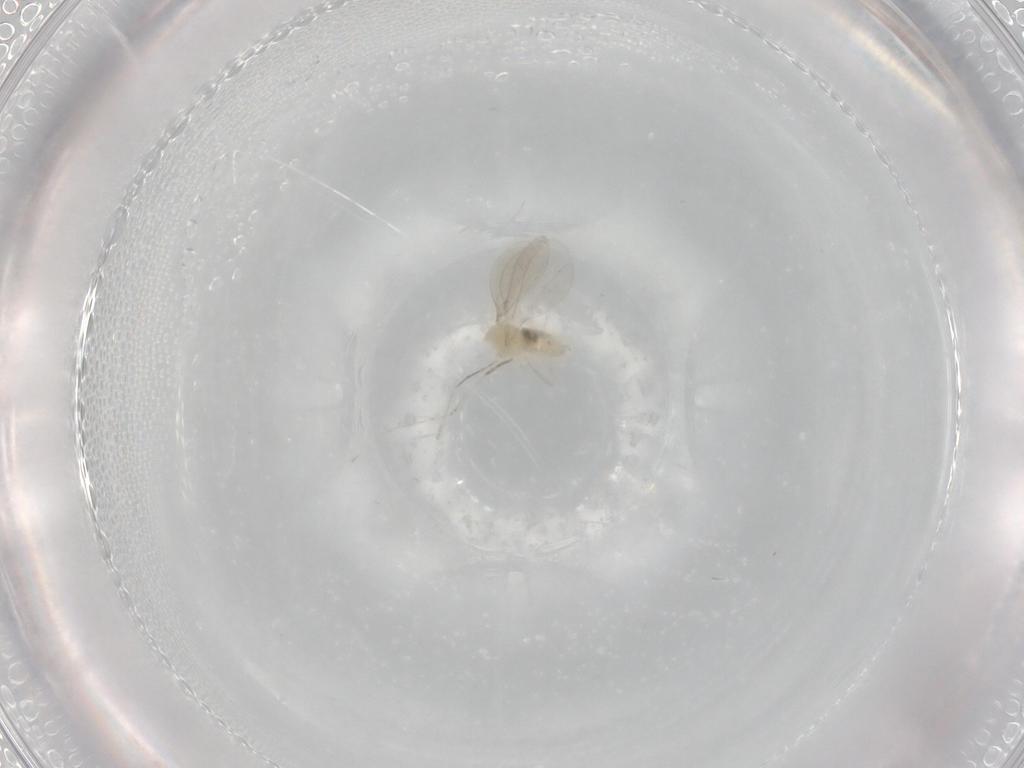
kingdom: Animalia
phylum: Arthropoda
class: Insecta
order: Diptera
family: Cecidomyiidae
